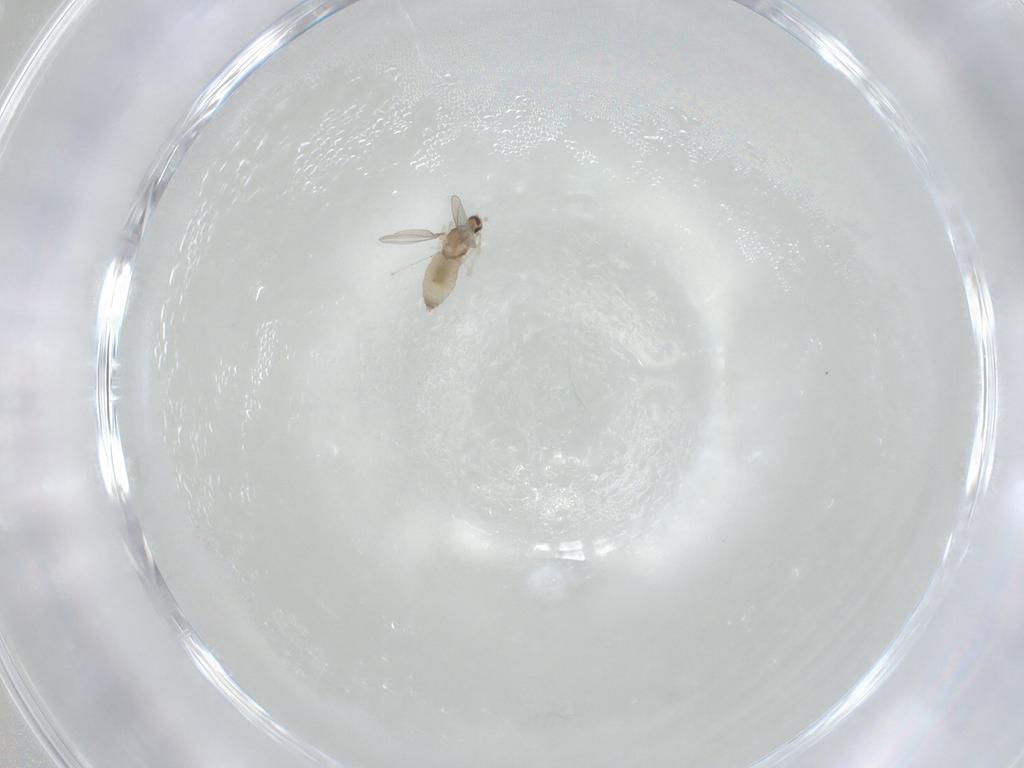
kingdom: Animalia
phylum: Arthropoda
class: Insecta
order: Diptera
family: Cecidomyiidae
